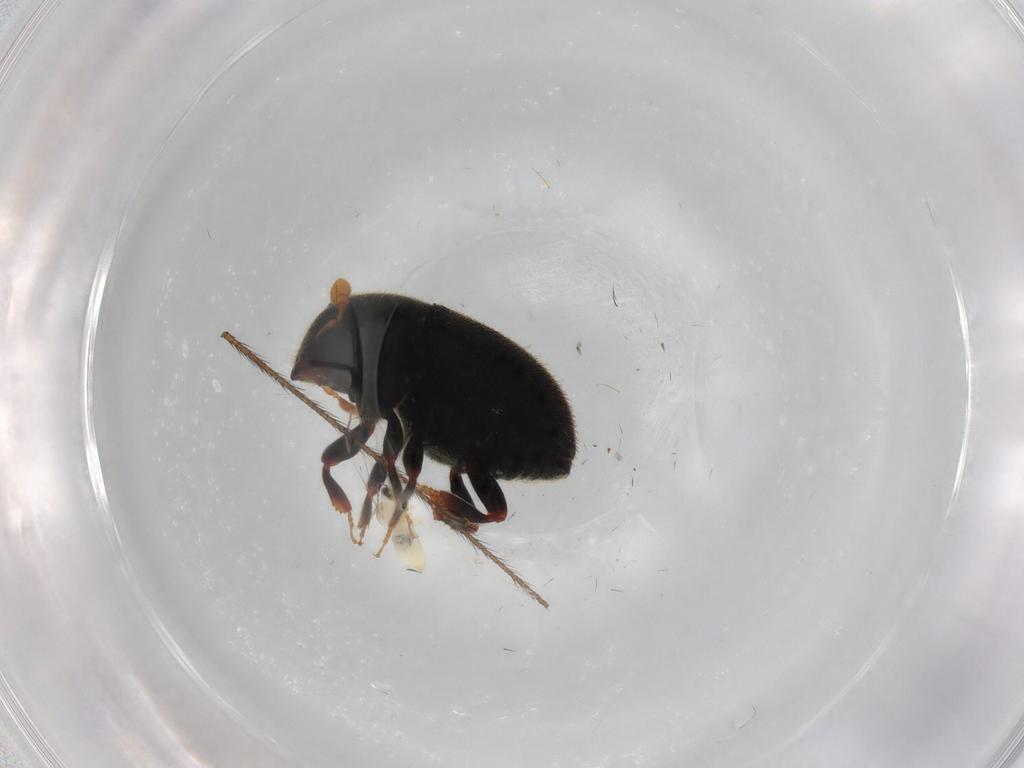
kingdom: Animalia
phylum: Arthropoda
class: Insecta
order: Coleoptera
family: Curculionidae
